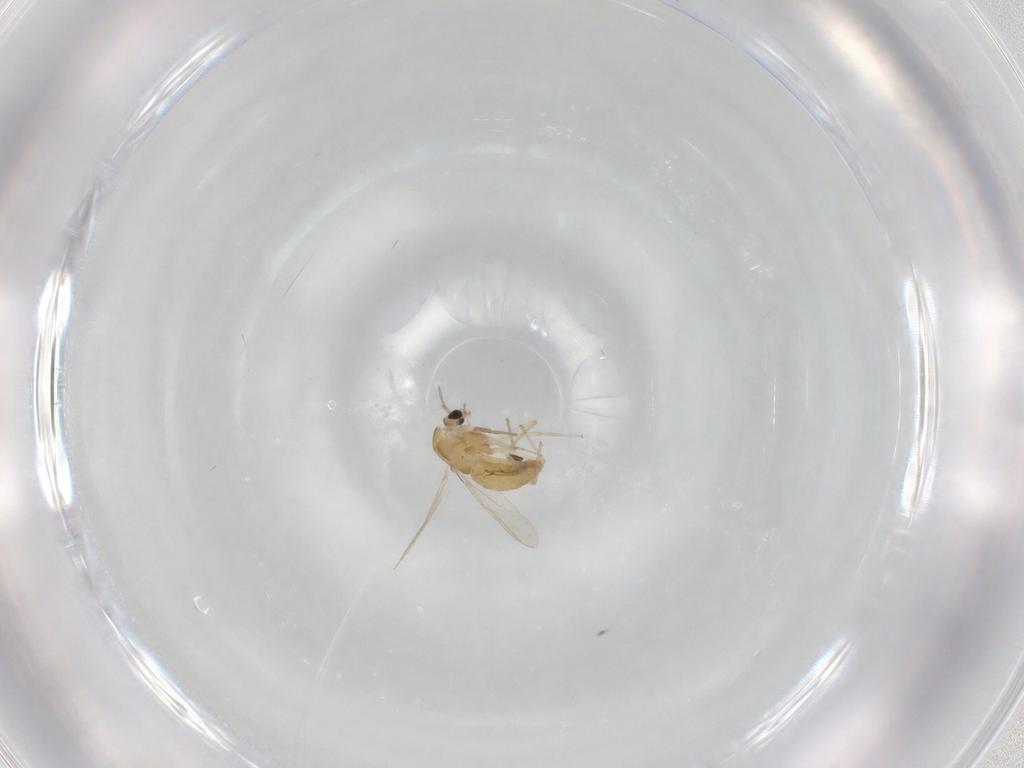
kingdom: Animalia
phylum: Arthropoda
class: Insecta
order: Diptera
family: Chironomidae
